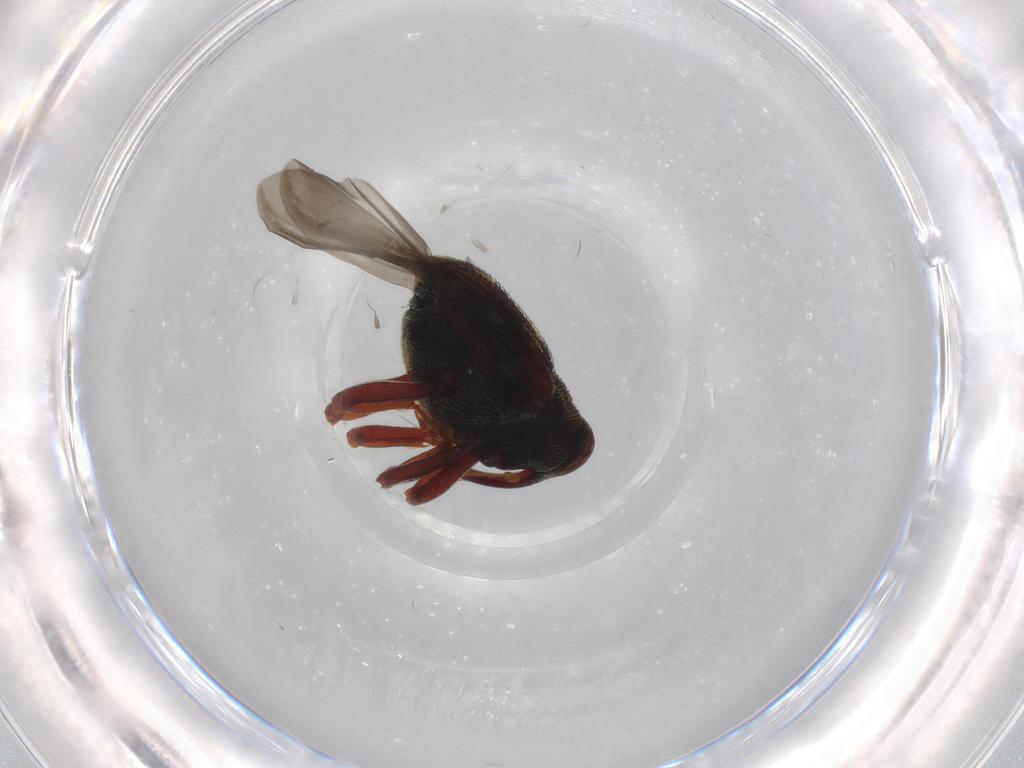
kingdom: Animalia
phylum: Arthropoda
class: Insecta
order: Coleoptera
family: Curculionidae
